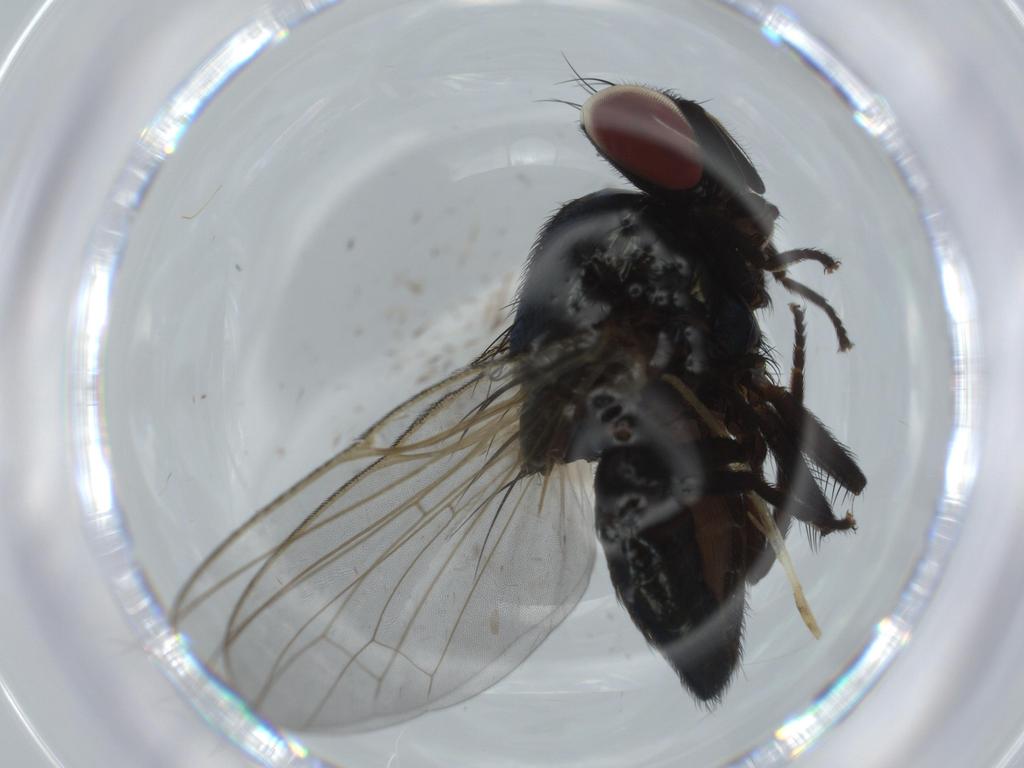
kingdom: Animalia
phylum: Arthropoda
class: Insecta
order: Diptera
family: Lonchaeidae
